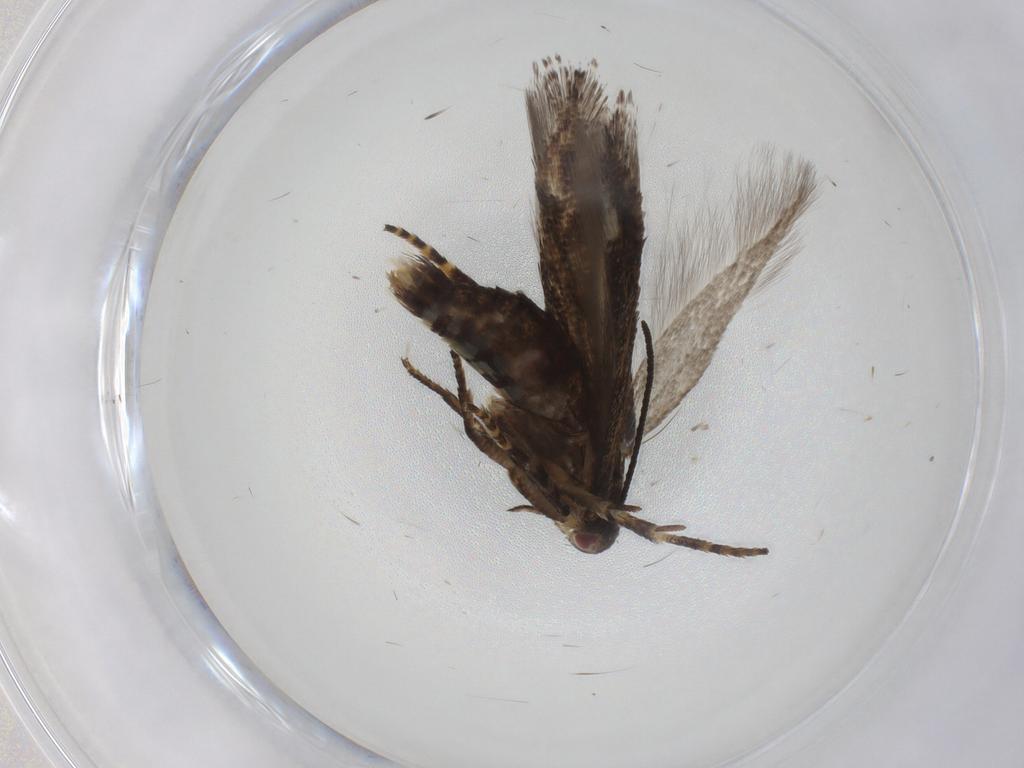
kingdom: Animalia
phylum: Arthropoda
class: Insecta
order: Lepidoptera
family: Momphidae
